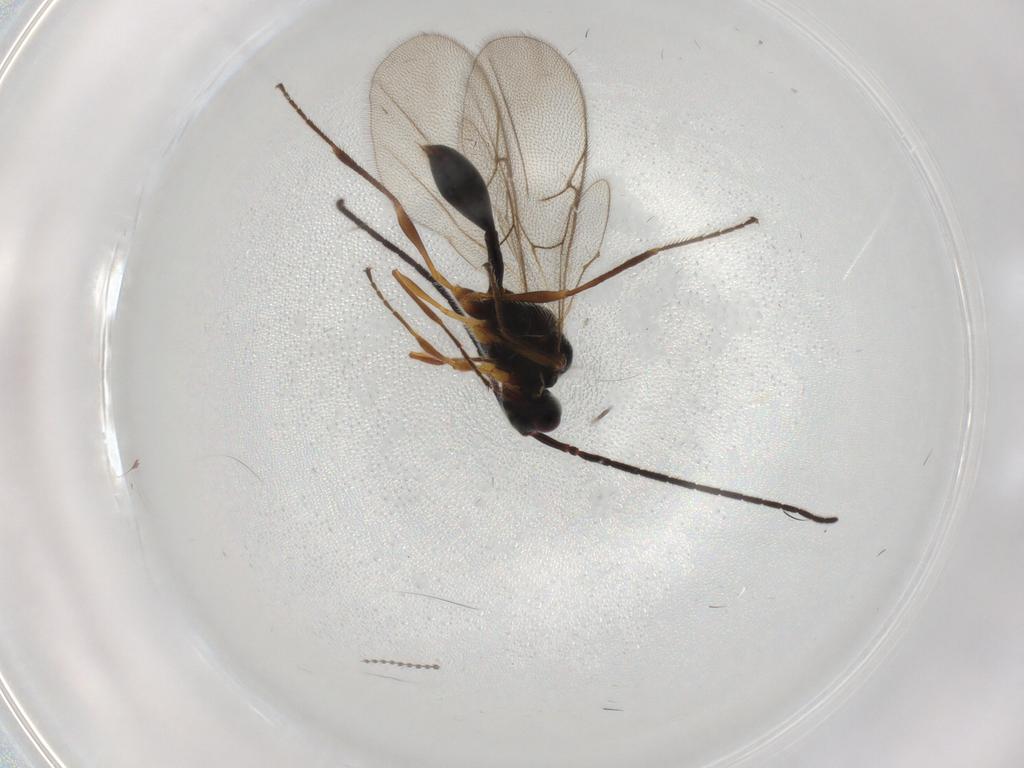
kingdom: Animalia
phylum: Arthropoda
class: Insecta
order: Hymenoptera
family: Diapriidae
